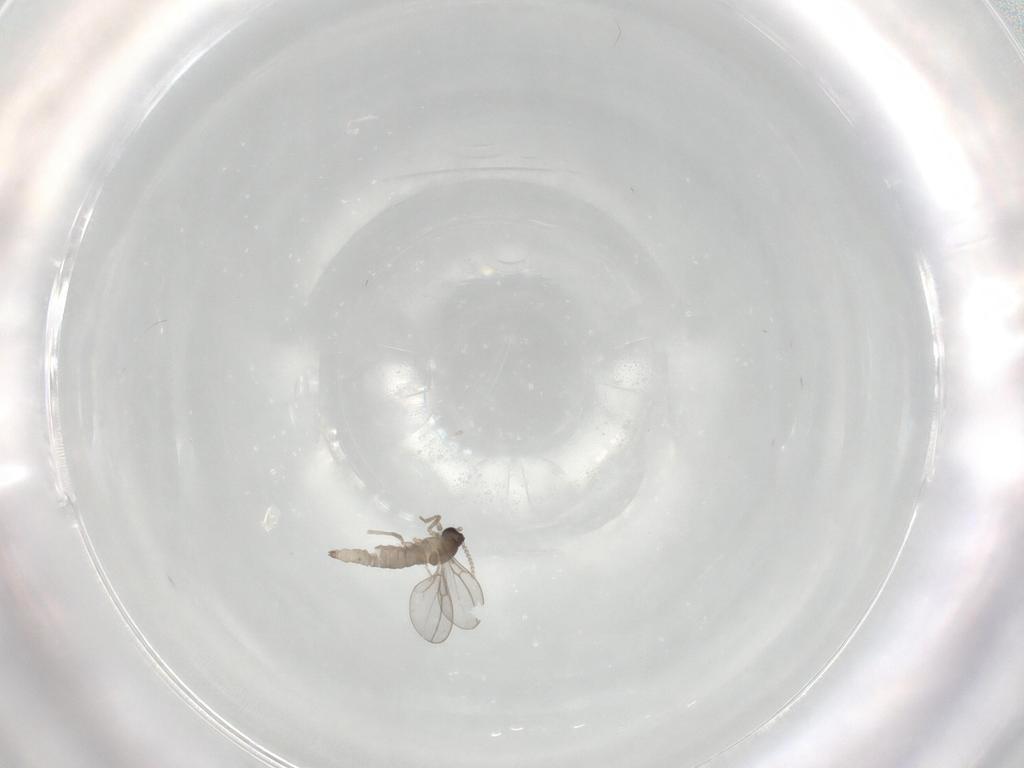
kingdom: Animalia
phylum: Arthropoda
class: Insecta
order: Diptera
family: Cecidomyiidae
